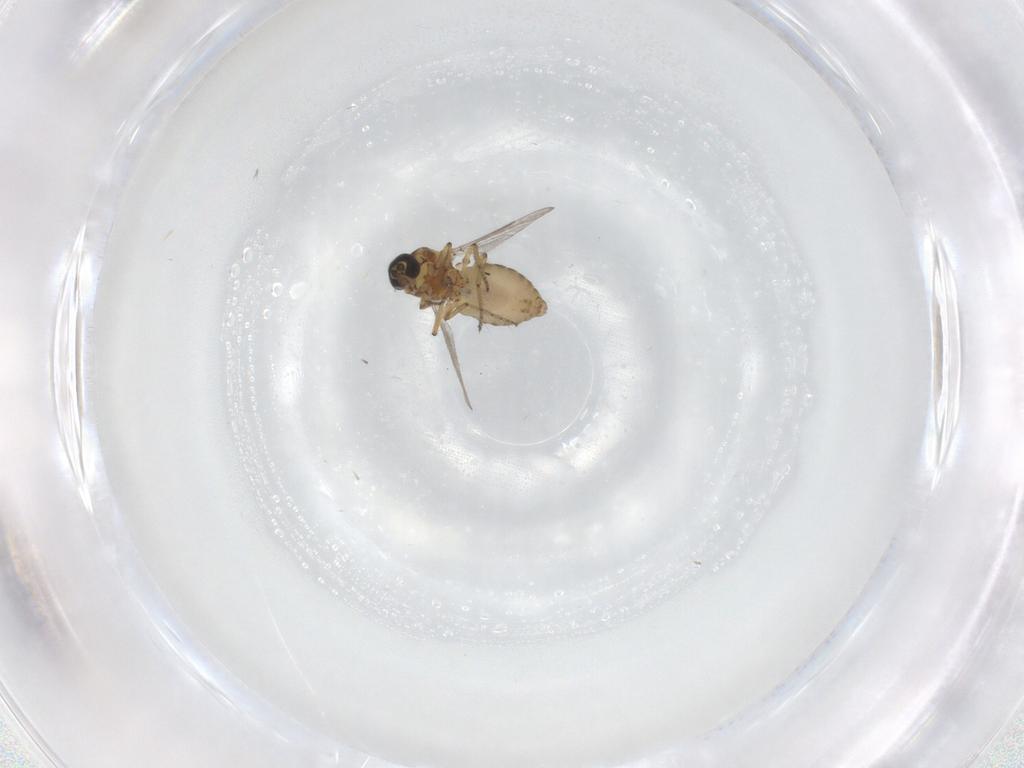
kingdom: Animalia
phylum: Arthropoda
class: Insecta
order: Diptera
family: Ceratopogonidae
